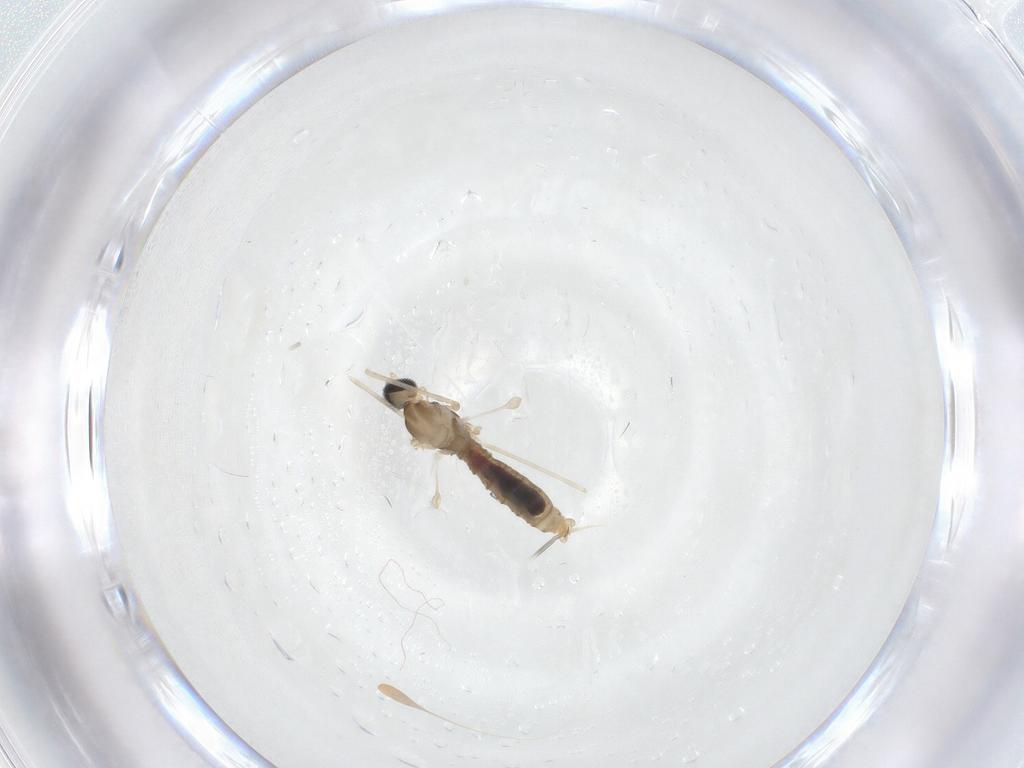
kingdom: Animalia
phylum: Arthropoda
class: Insecta
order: Diptera
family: Cecidomyiidae
